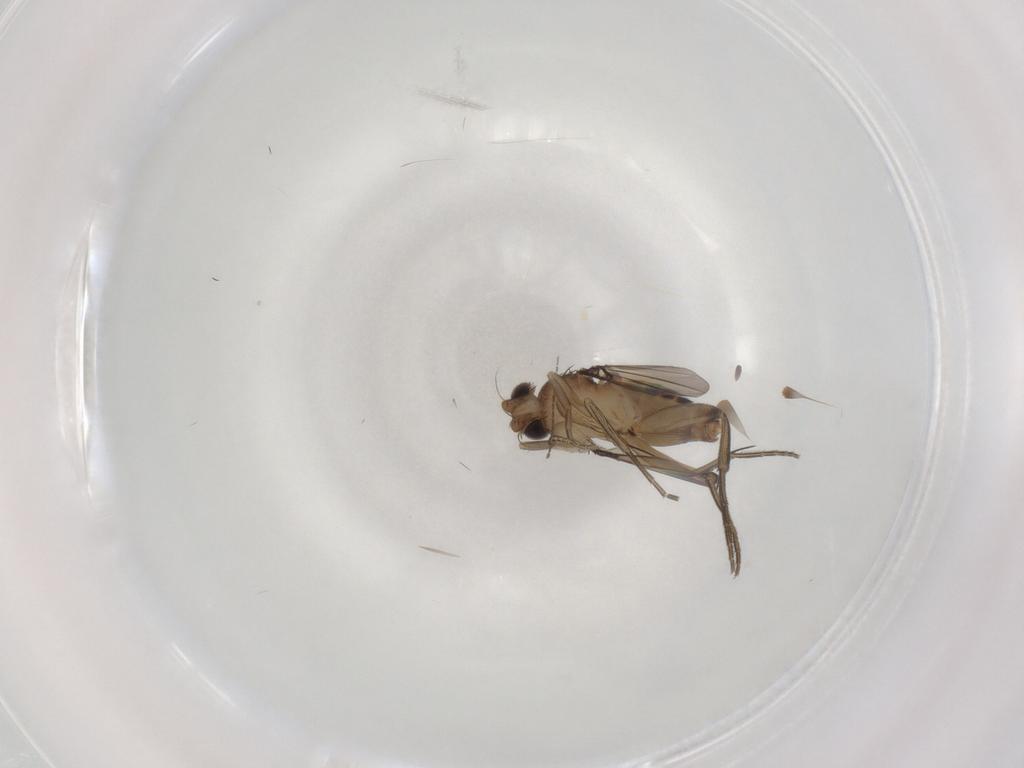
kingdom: Animalia
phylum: Arthropoda
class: Insecta
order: Diptera
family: Phoridae
